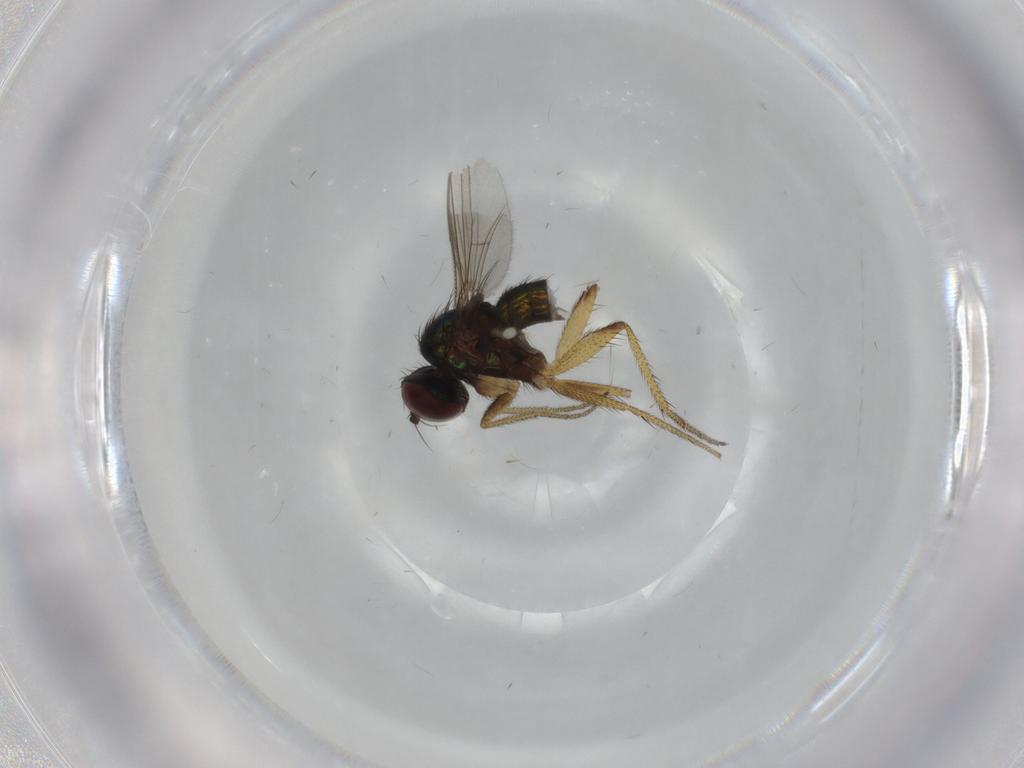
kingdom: Animalia
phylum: Arthropoda
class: Insecta
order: Diptera
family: Dolichopodidae
